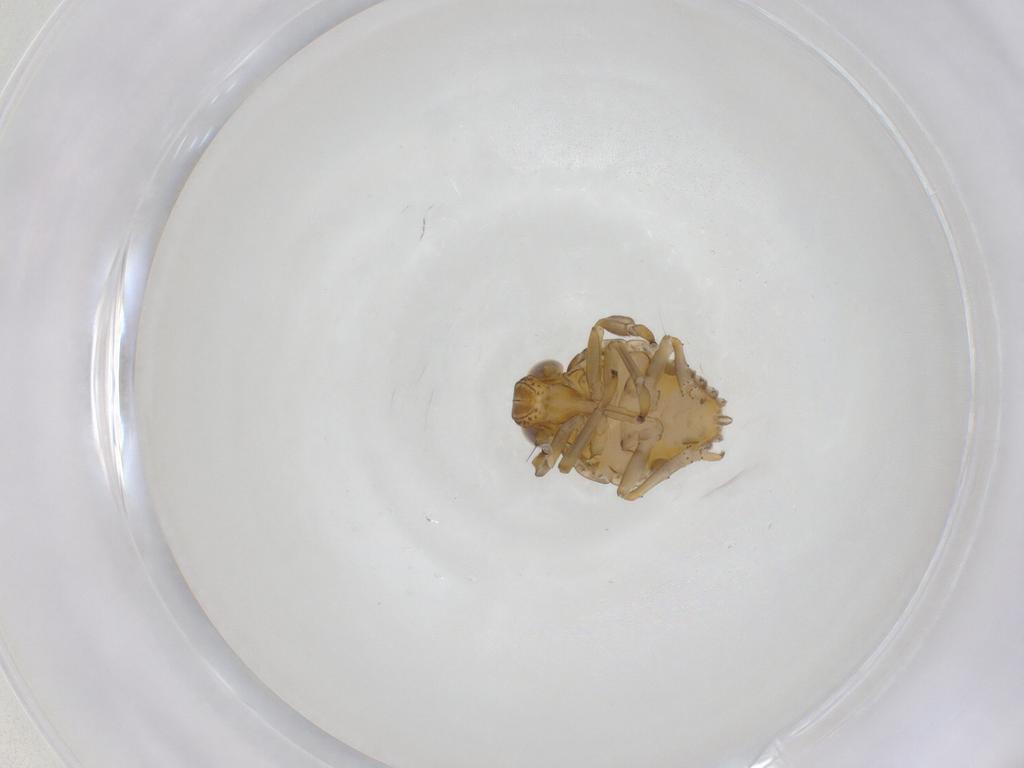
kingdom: Animalia
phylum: Arthropoda
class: Insecta
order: Hemiptera
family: Issidae
